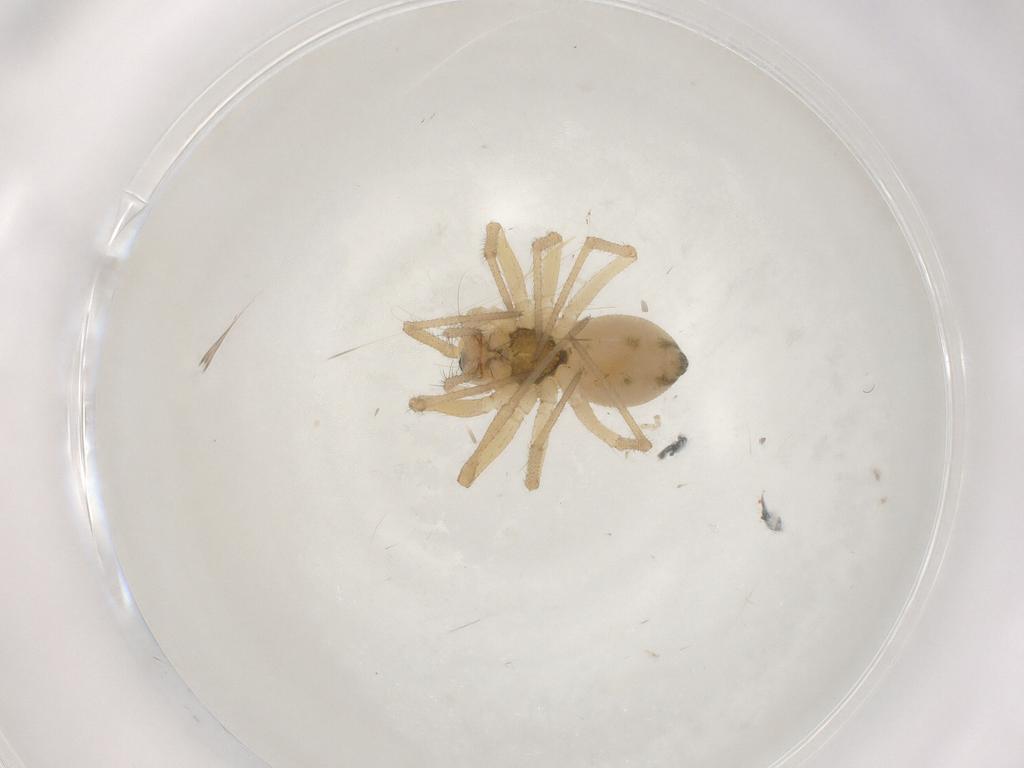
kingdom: Animalia
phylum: Arthropoda
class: Arachnida
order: Araneae
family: Linyphiidae
